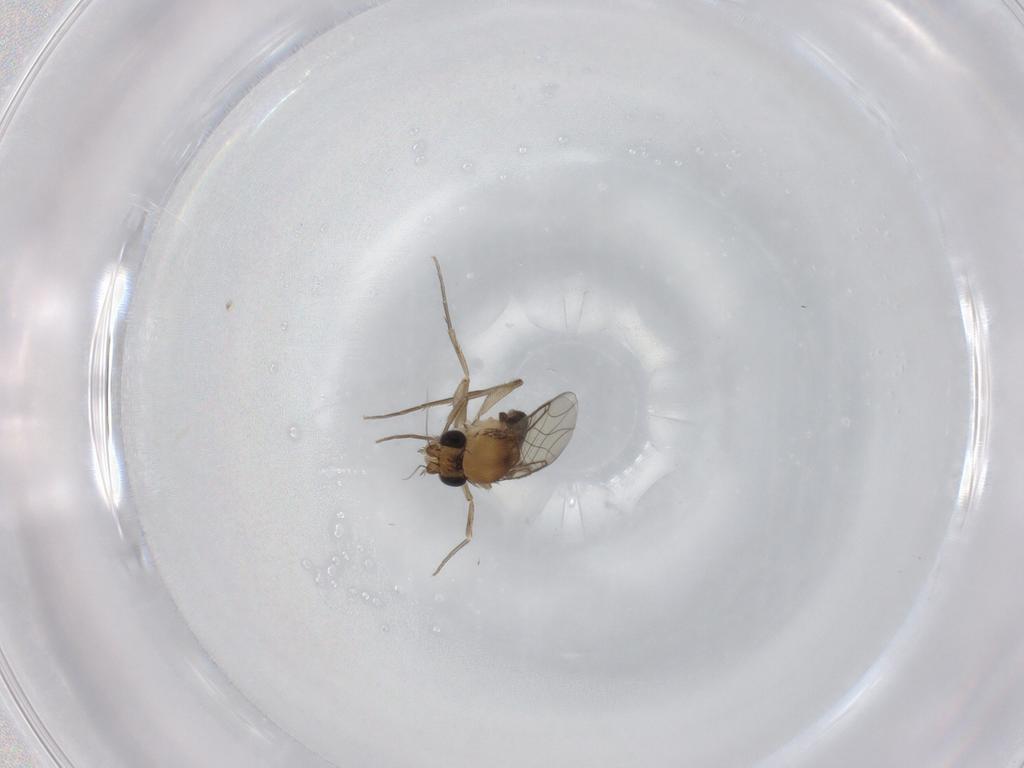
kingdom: Animalia
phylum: Arthropoda
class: Insecta
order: Diptera
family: Phoridae
